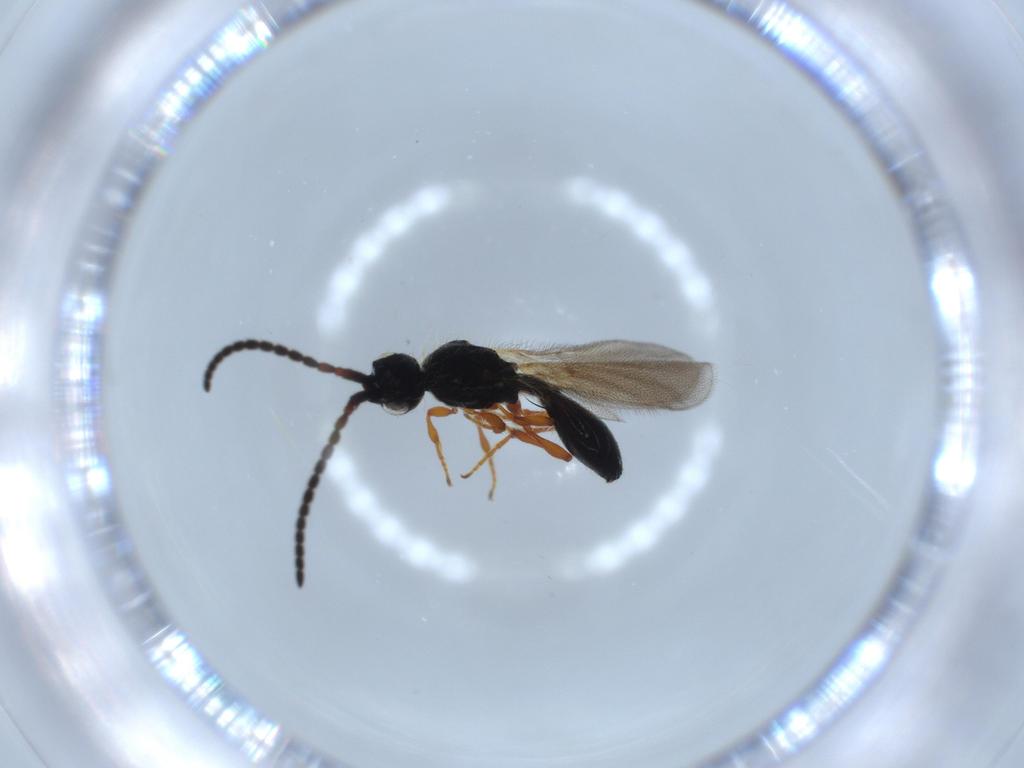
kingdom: Animalia
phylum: Arthropoda
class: Insecta
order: Hymenoptera
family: Diapriidae
